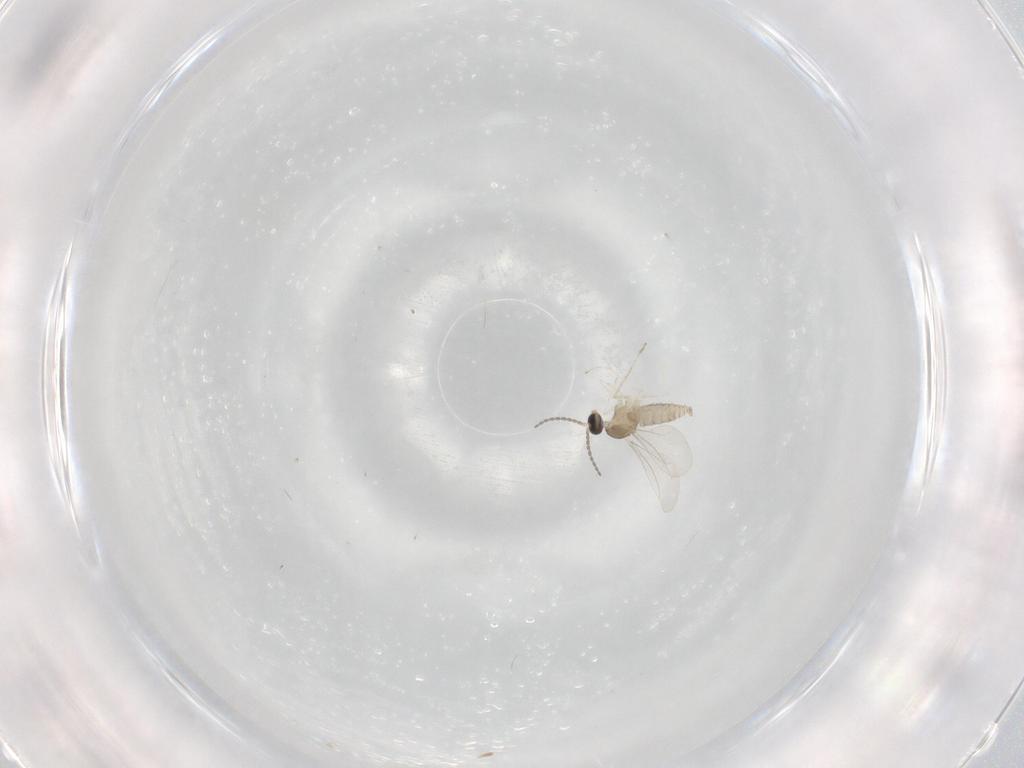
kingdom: Animalia
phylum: Arthropoda
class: Insecta
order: Diptera
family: Cecidomyiidae
